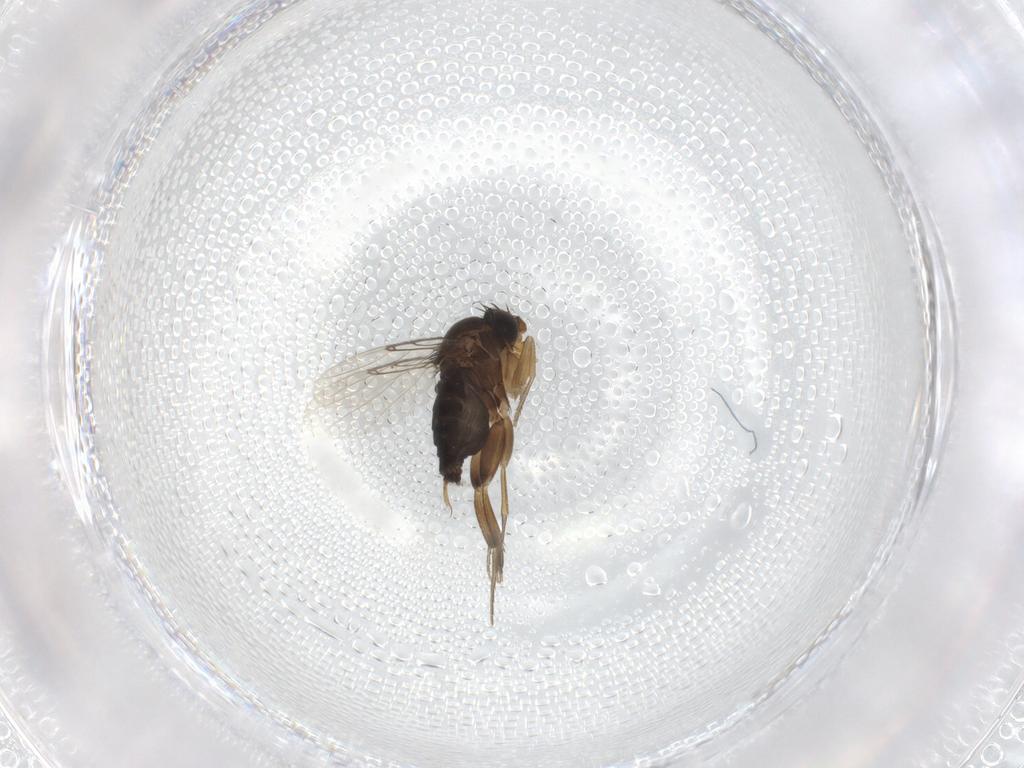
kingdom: Animalia
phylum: Arthropoda
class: Insecta
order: Diptera
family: Phoridae
